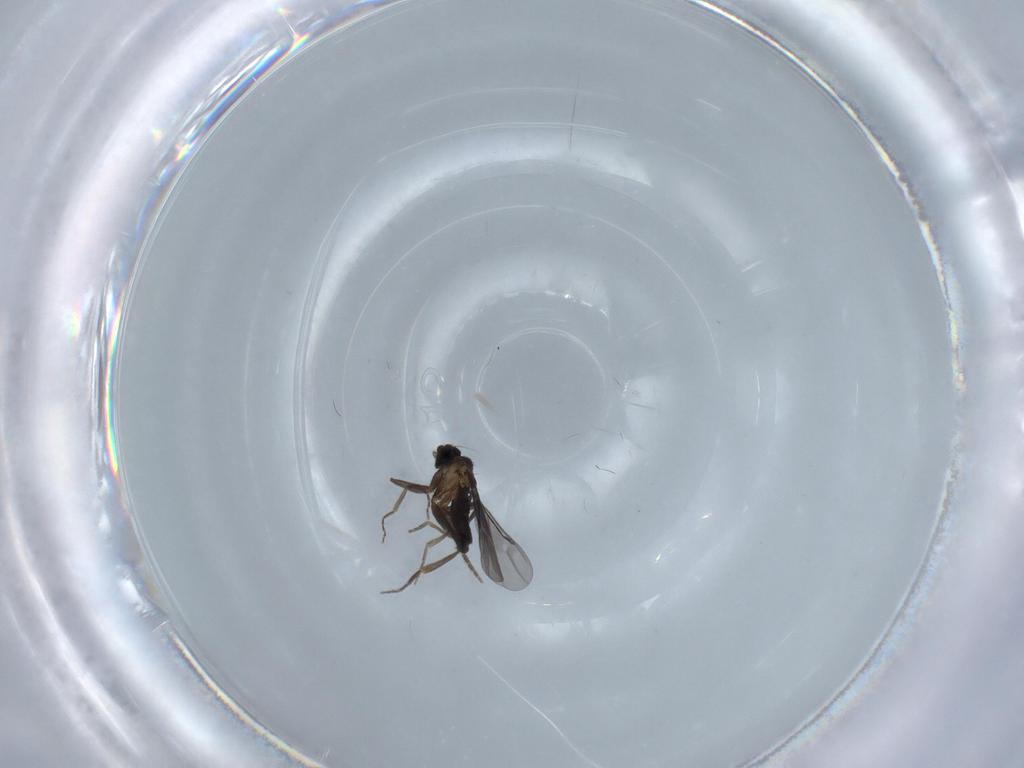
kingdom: Animalia
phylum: Arthropoda
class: Insecta
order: Diptera
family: Phoridae
